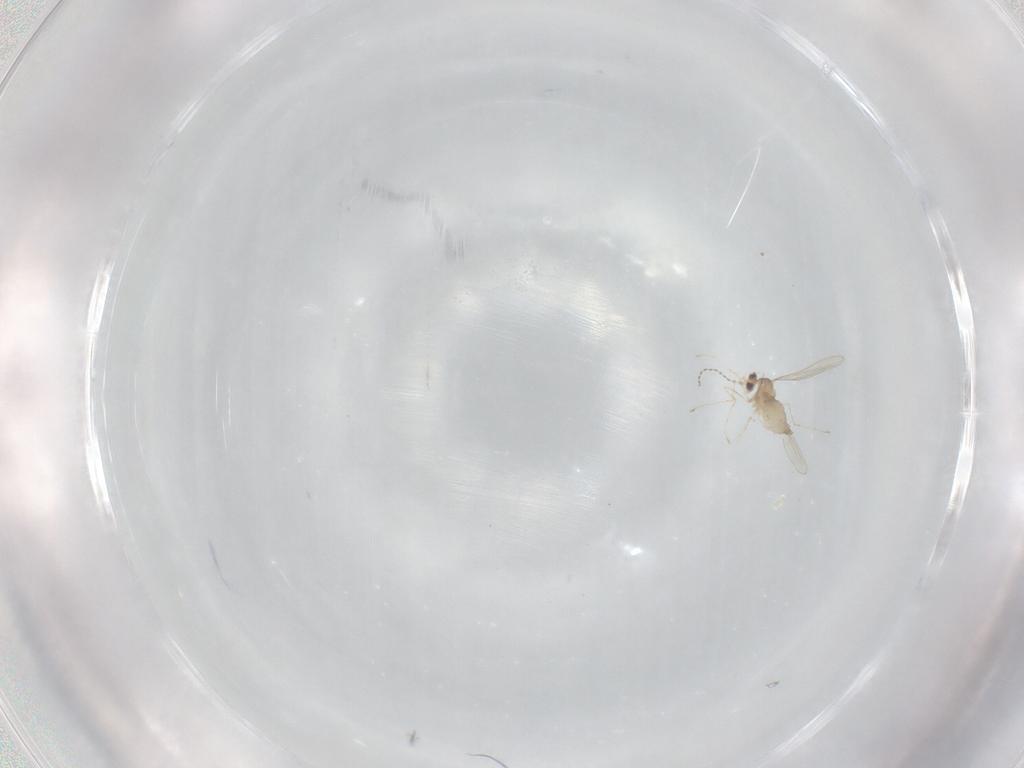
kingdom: Animalia
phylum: Arthropoda
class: Insecta
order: Diptera
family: Cecidomyiidae
